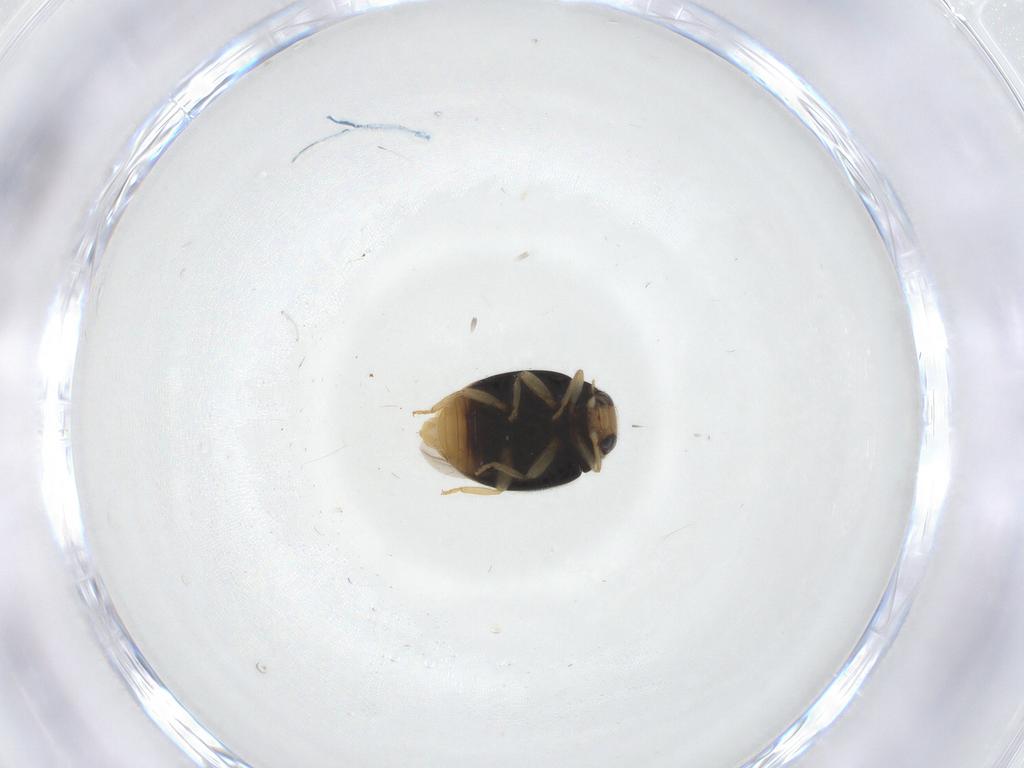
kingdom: Animalia
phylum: Arthropoda
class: Insecta
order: Coleoptera
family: Coccinellidae
